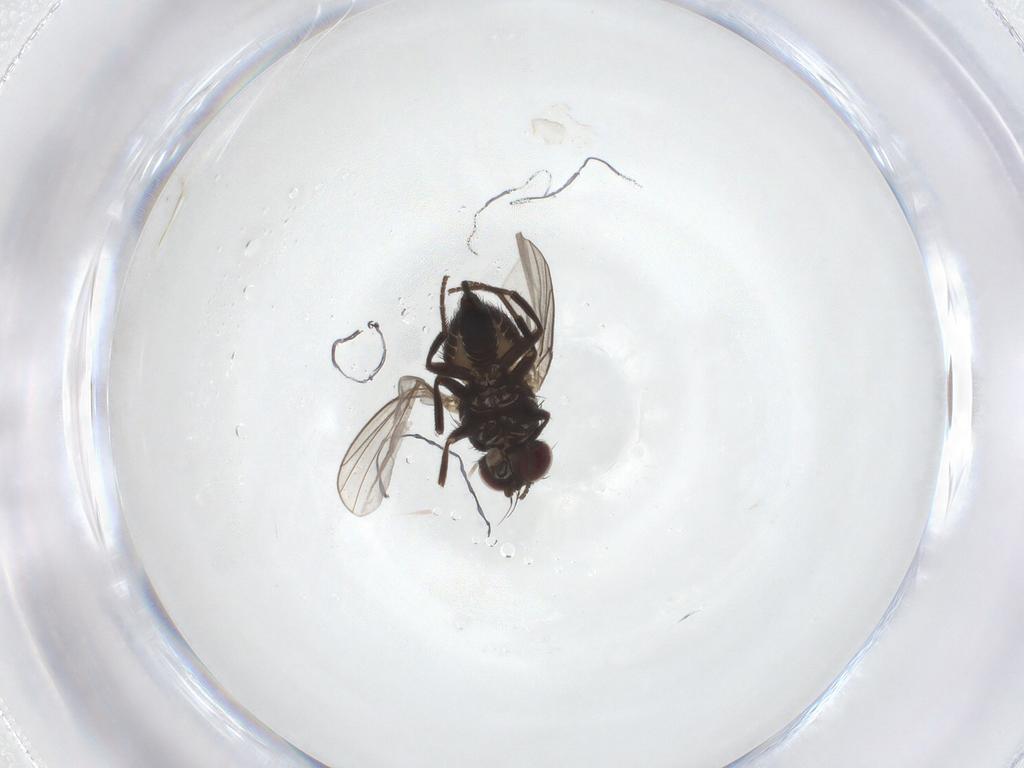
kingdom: Animalia
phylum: Arthropoda
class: Insecta
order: Diptera
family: Agromyzidae
